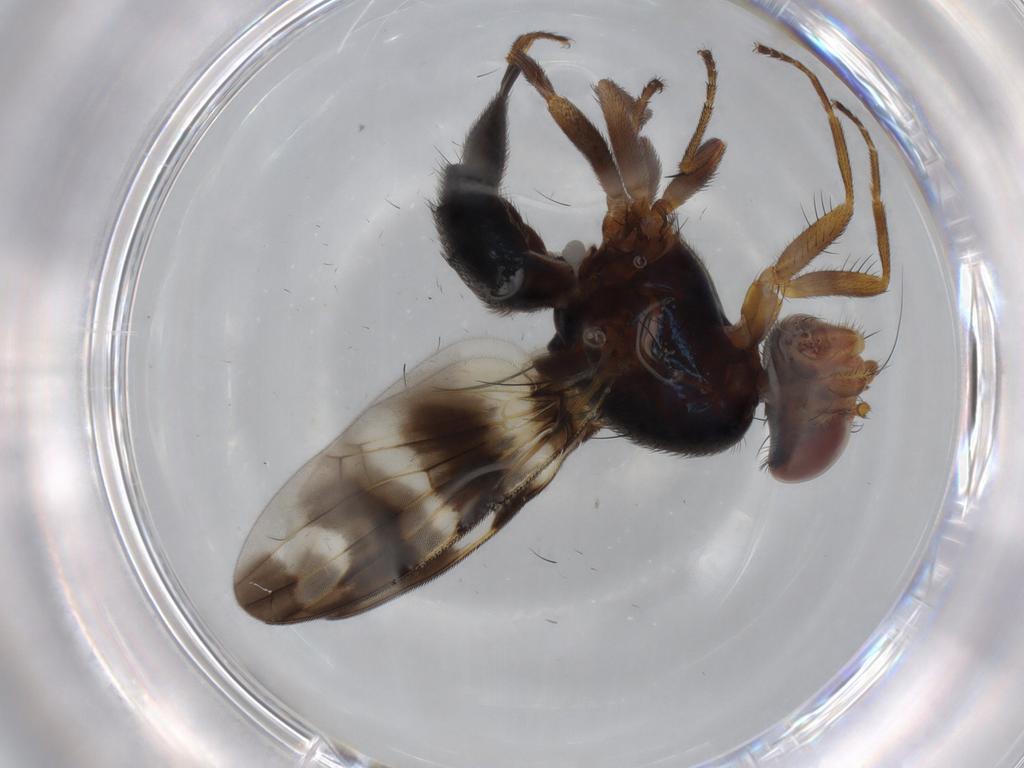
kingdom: Animalia
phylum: Arthropoda
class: Insecta
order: Diptera
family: Ulidiidae
